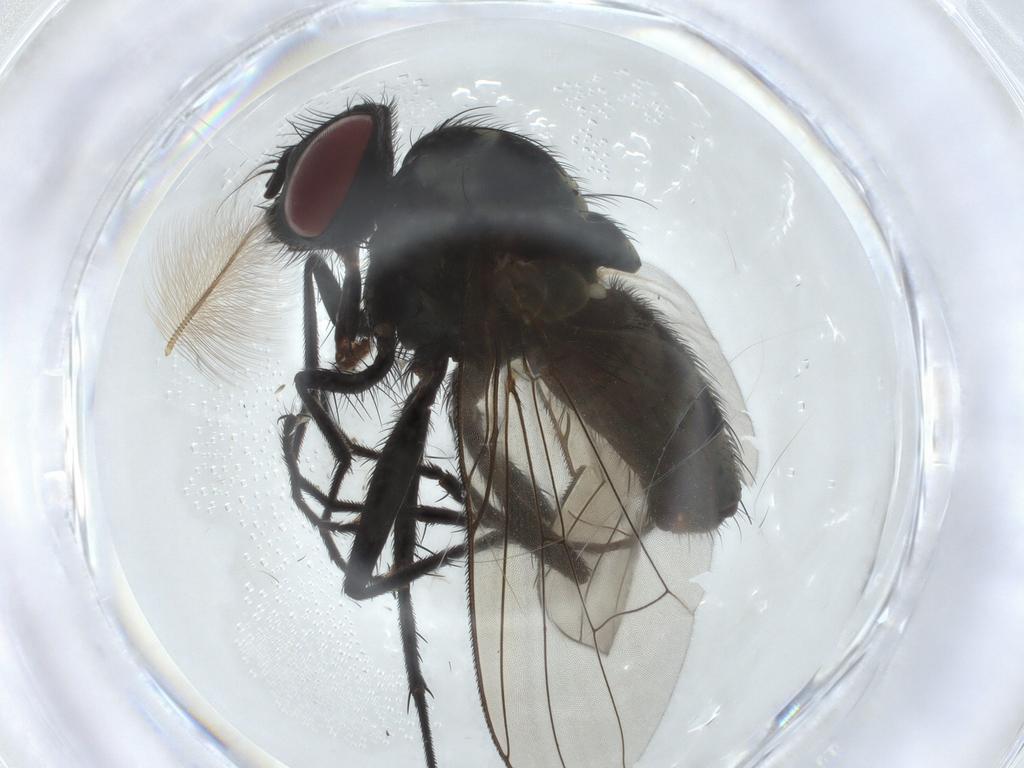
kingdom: Animalia
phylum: Arthropoda
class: Insecta
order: Diptera
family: Muscidae
